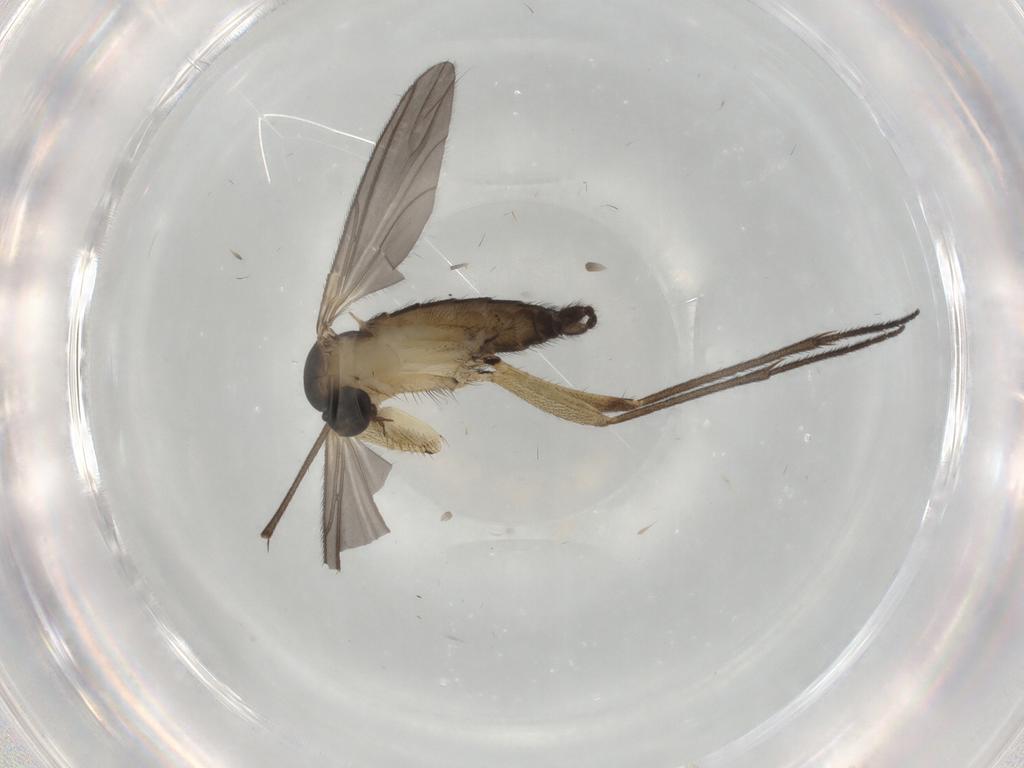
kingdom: Animalia
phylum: Arthropoda
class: Insecta
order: Diptera
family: Sciaridae
